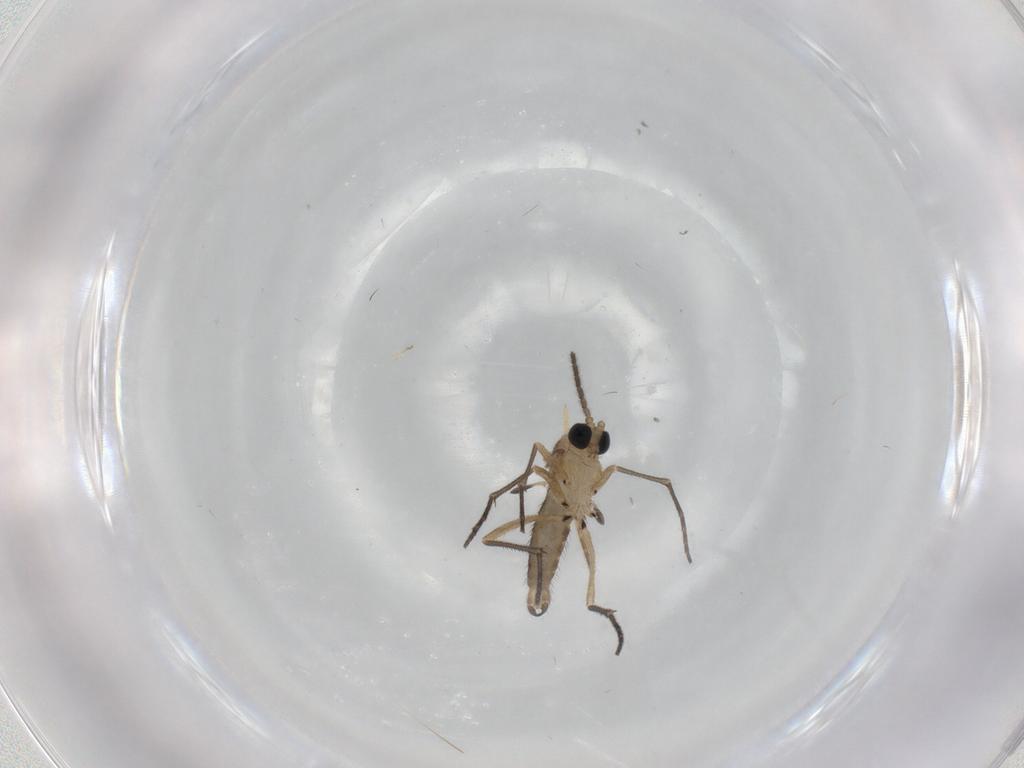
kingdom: Animalia
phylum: Arthropoda
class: Insecta
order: Diptera
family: Sciaridae
